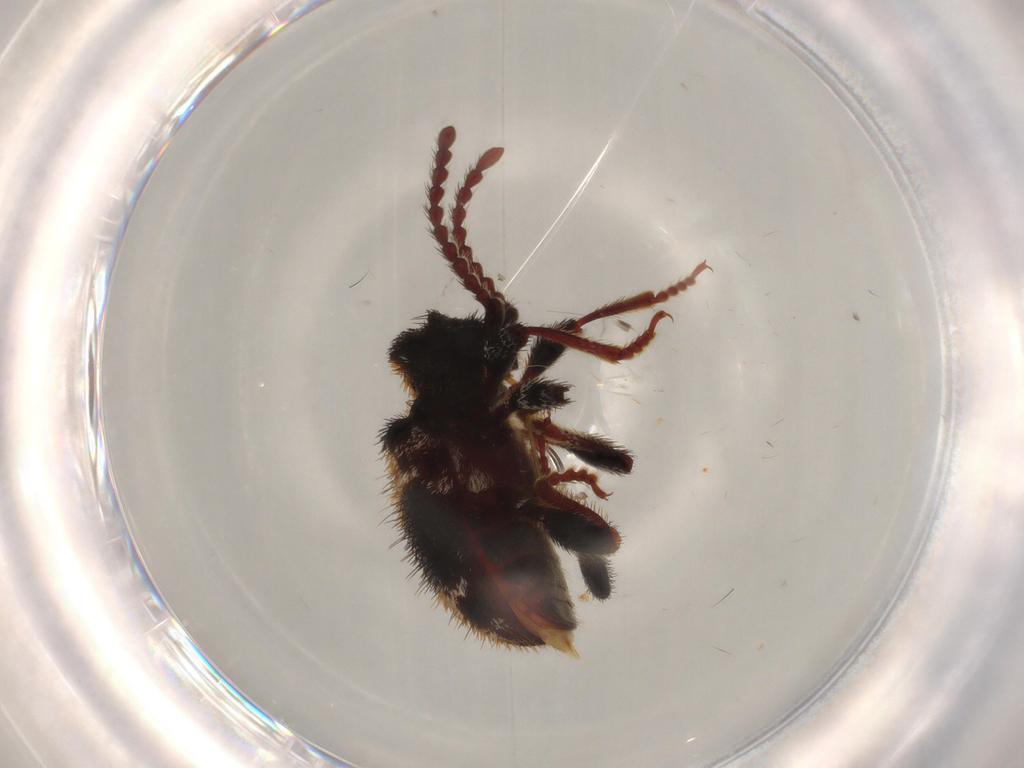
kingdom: Animalia
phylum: Arthropoda
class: Insecta
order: Coleoptera
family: Ptinidae
